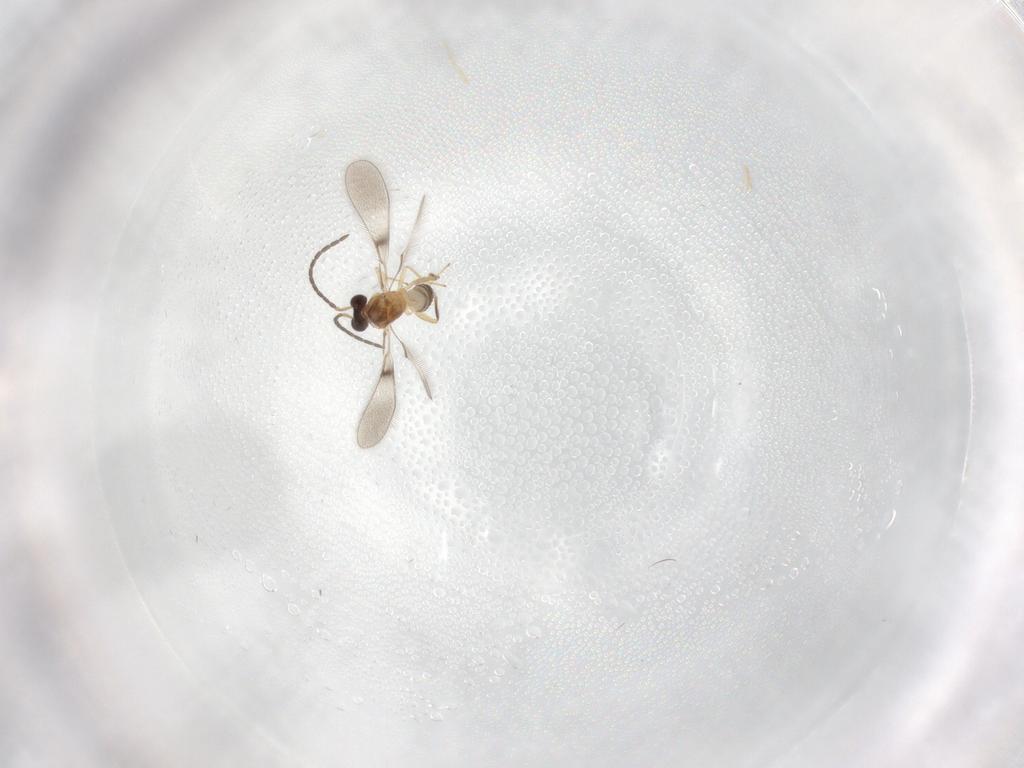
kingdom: Animalia
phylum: Arthropoda
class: Insecta
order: Hymenoptera
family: Mymaridae
